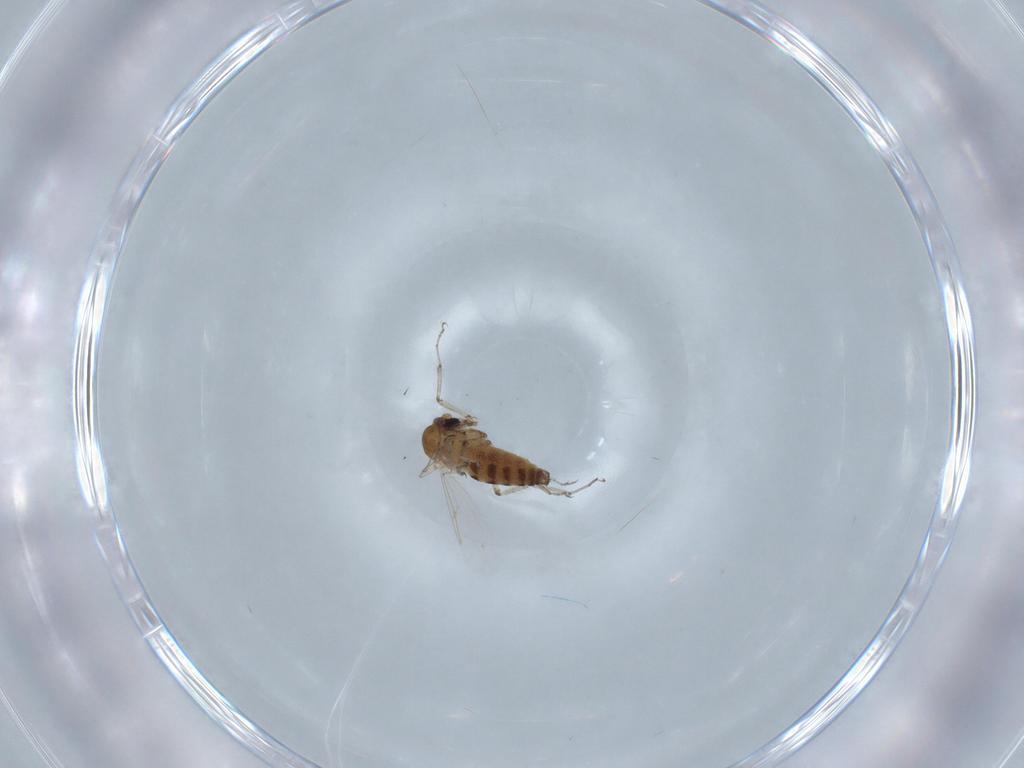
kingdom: Animalia
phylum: Arthropoda
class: Insecta
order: Diptera
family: Ceratopogonidae
